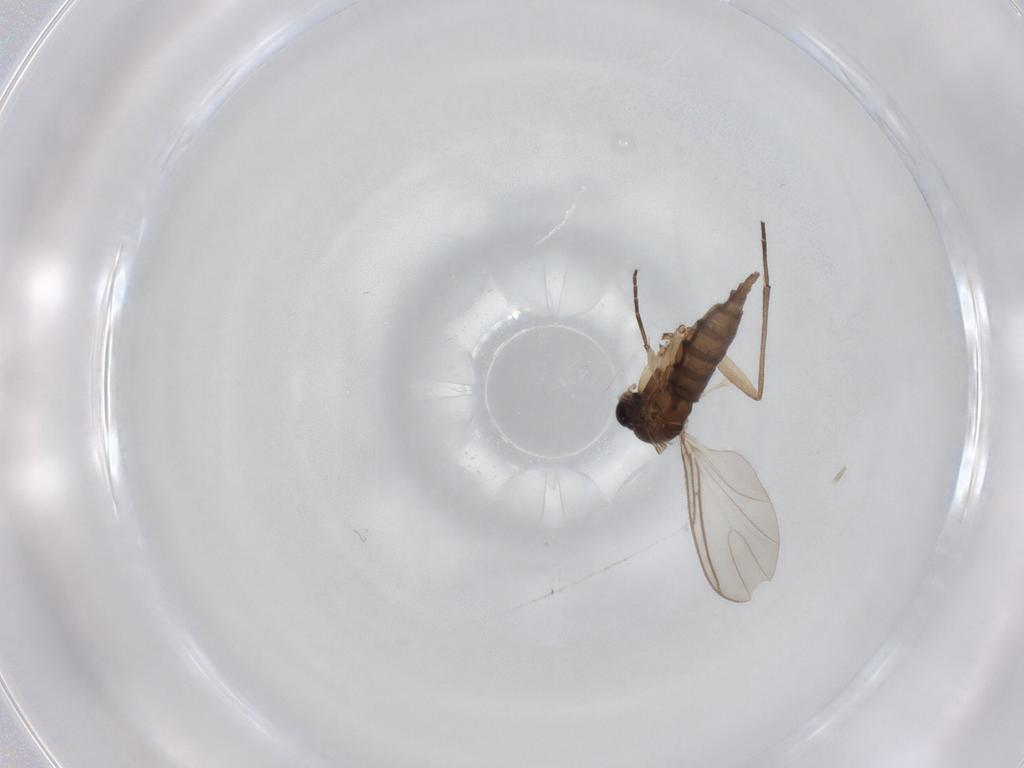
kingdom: Animalia
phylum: Arthropoda
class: Insecta
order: Diptera
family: Sciaridae
